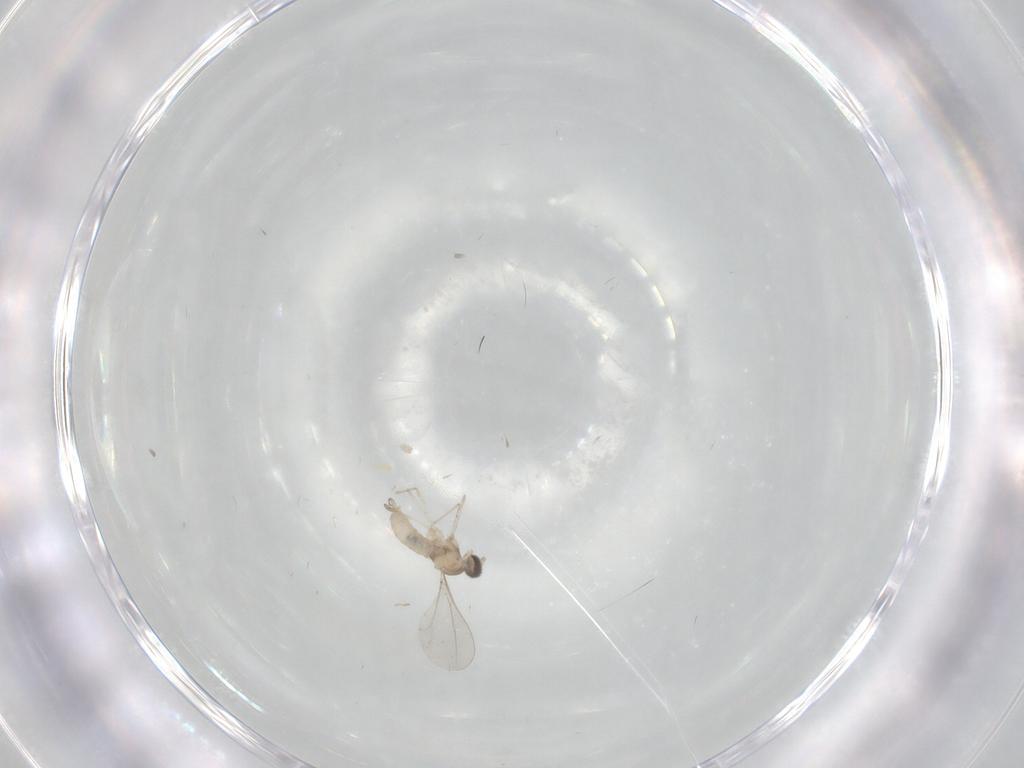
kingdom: Animalia
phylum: Arthropoda
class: Insecta
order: Diptera
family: Cecidomyiidae
